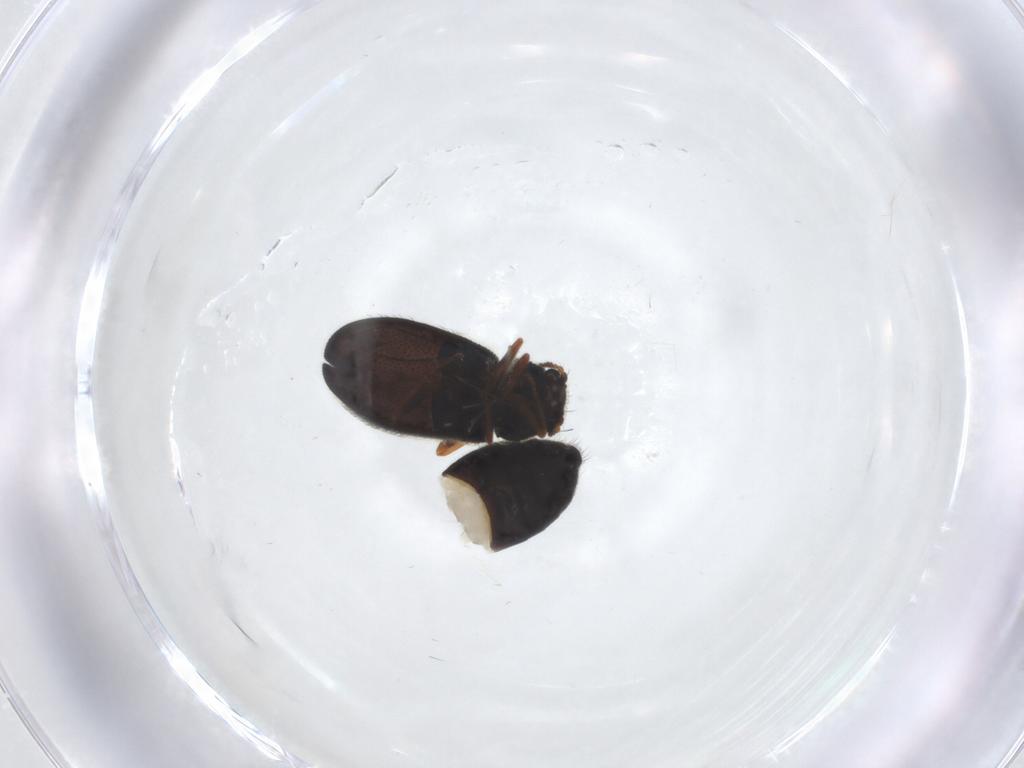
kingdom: Animalia
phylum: Arthropoda
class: Insecta
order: Coleoptera
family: Melyridae
